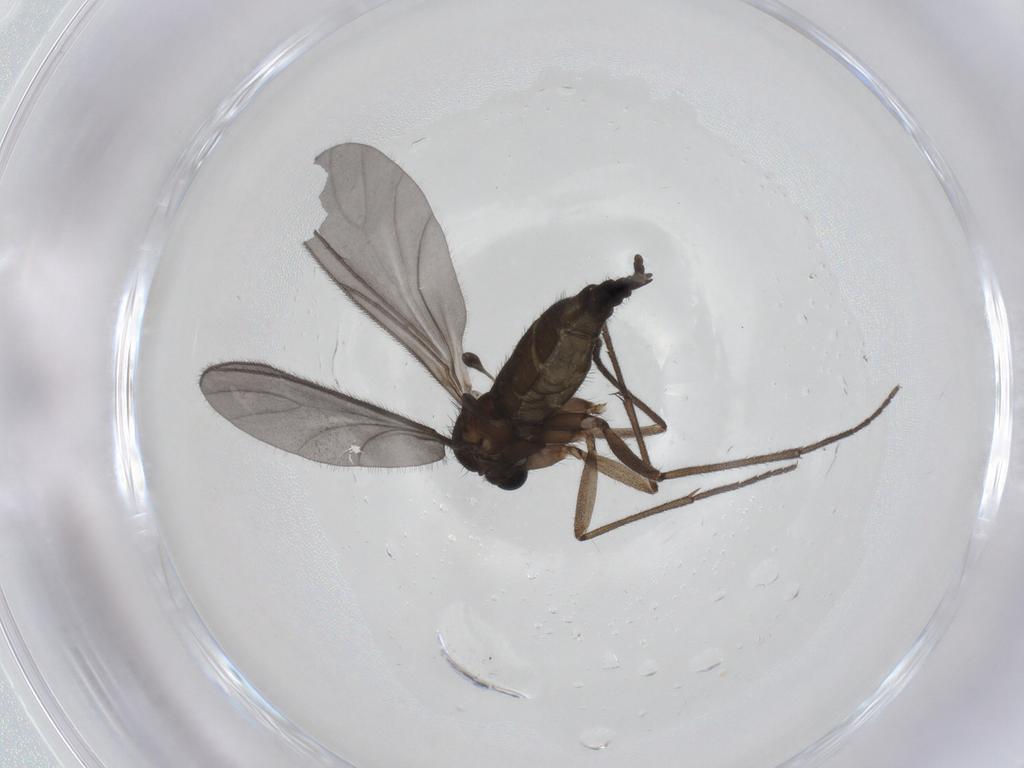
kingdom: Animalia
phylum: Arthropoda
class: Insecta
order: Diptera
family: Sciaridae
